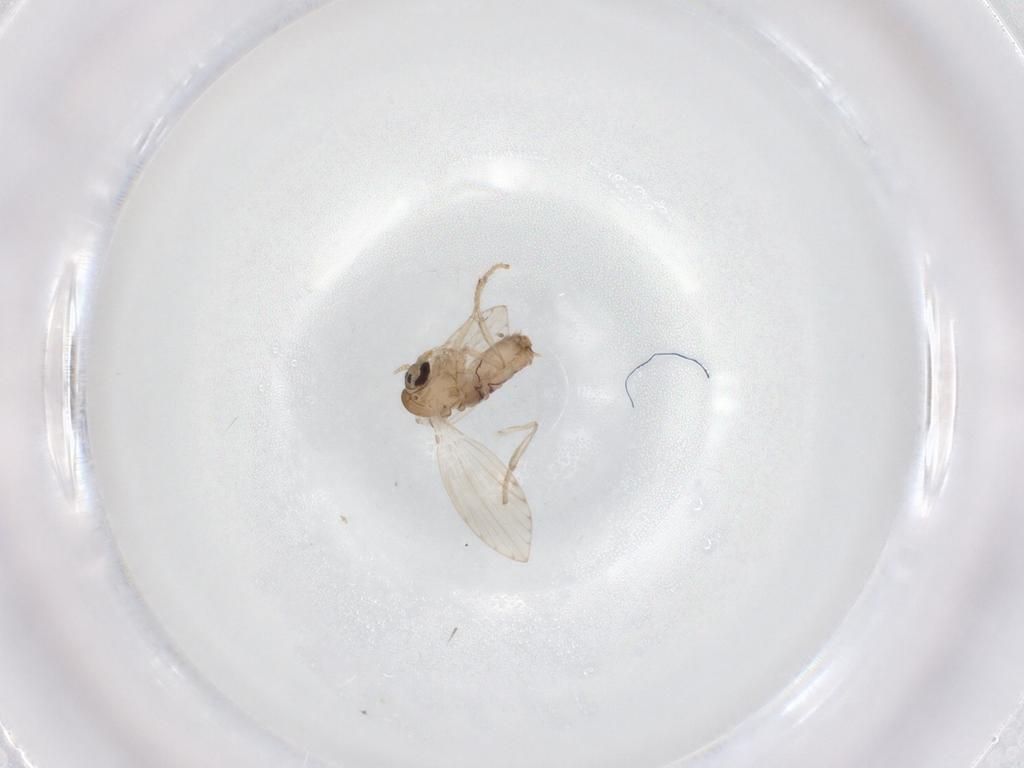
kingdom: Animalia
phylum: Arthropoda
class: Insecta
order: Diptera
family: Psychodidae
